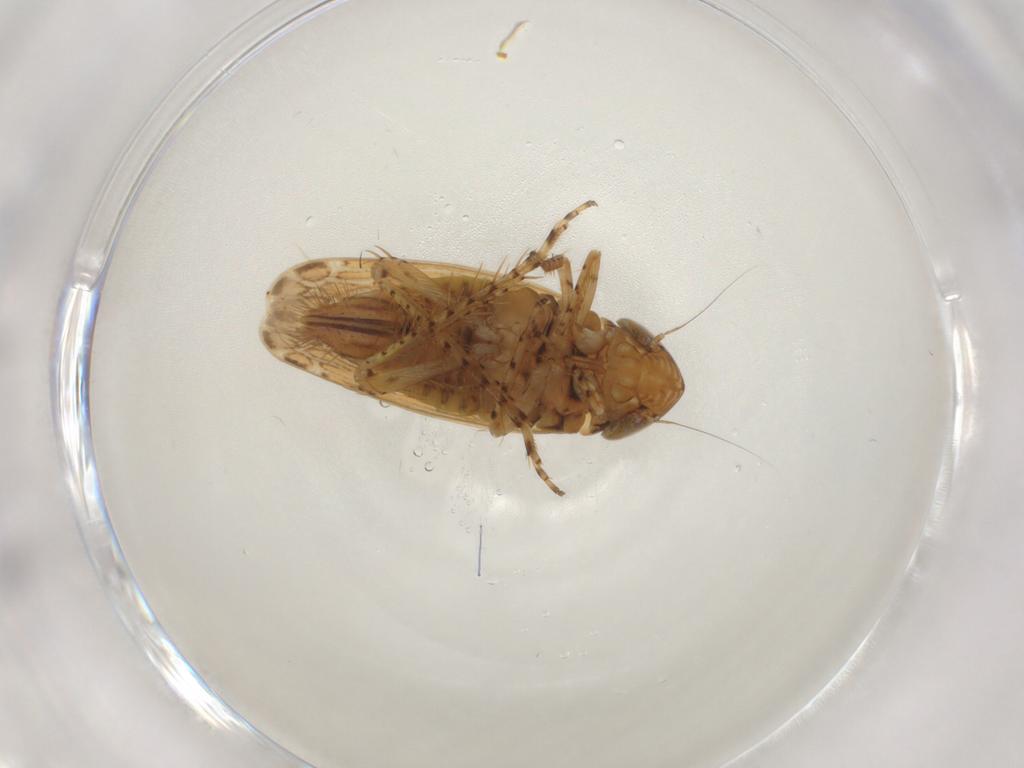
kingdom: Animalia
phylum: Arthropoda
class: Insecta
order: Hemiptera
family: Cicadellidae
